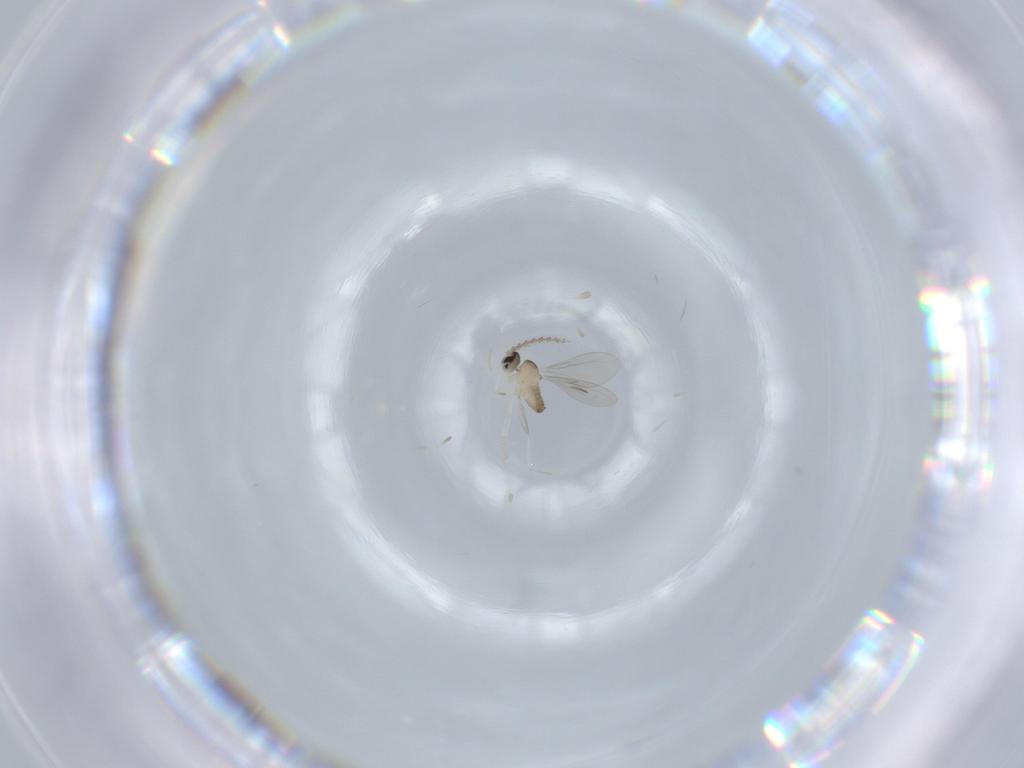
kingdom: Animalia
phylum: Arthropoda
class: Insecta
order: Diptera
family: Cecidomyiidae
